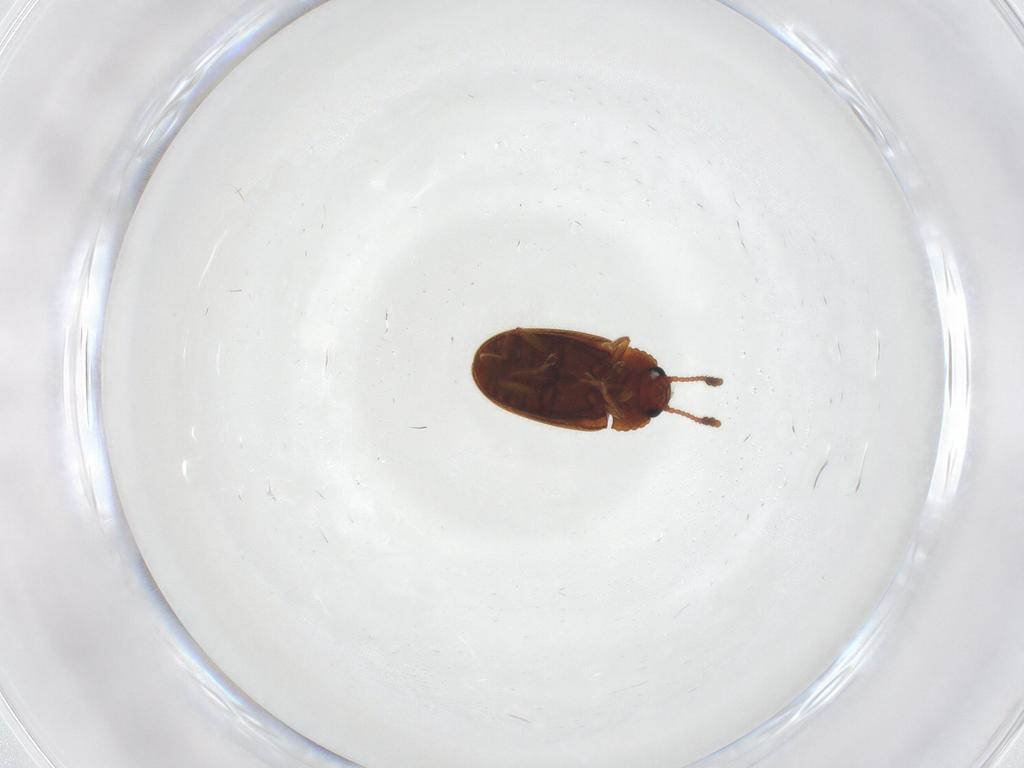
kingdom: Animalia
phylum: Arthropoda
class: Insecta
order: Coleoptera
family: Erotylidae
